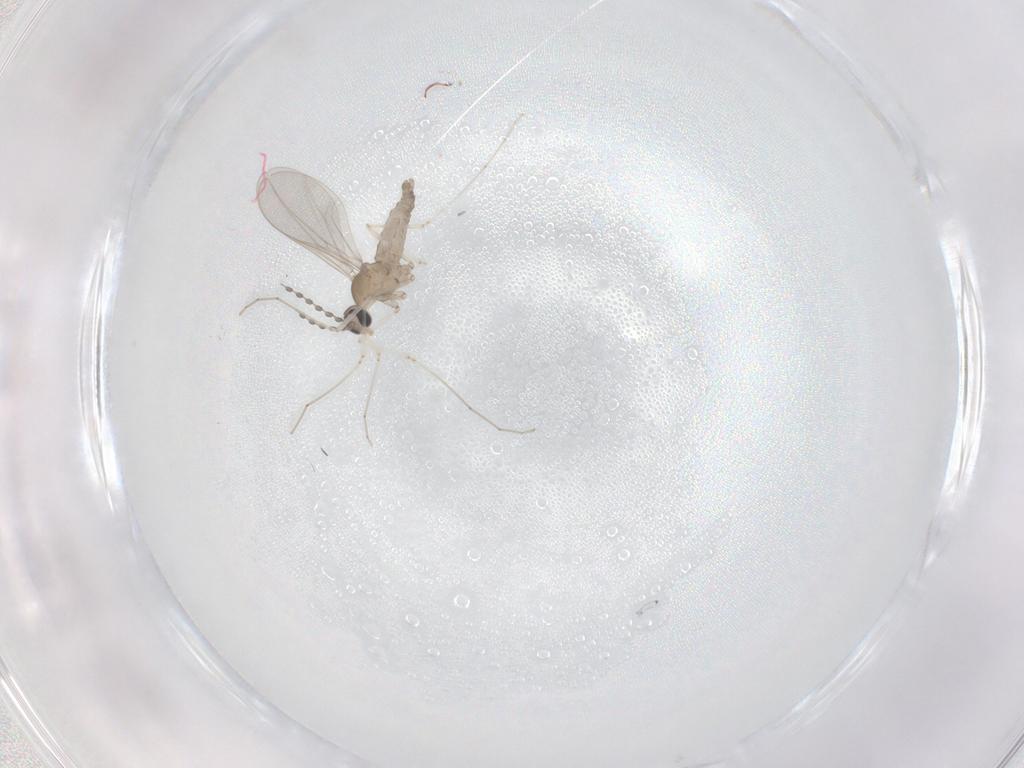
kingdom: Animalia
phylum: Arthropoda
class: Insecta
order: Diptera
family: Cecidomyiidae
